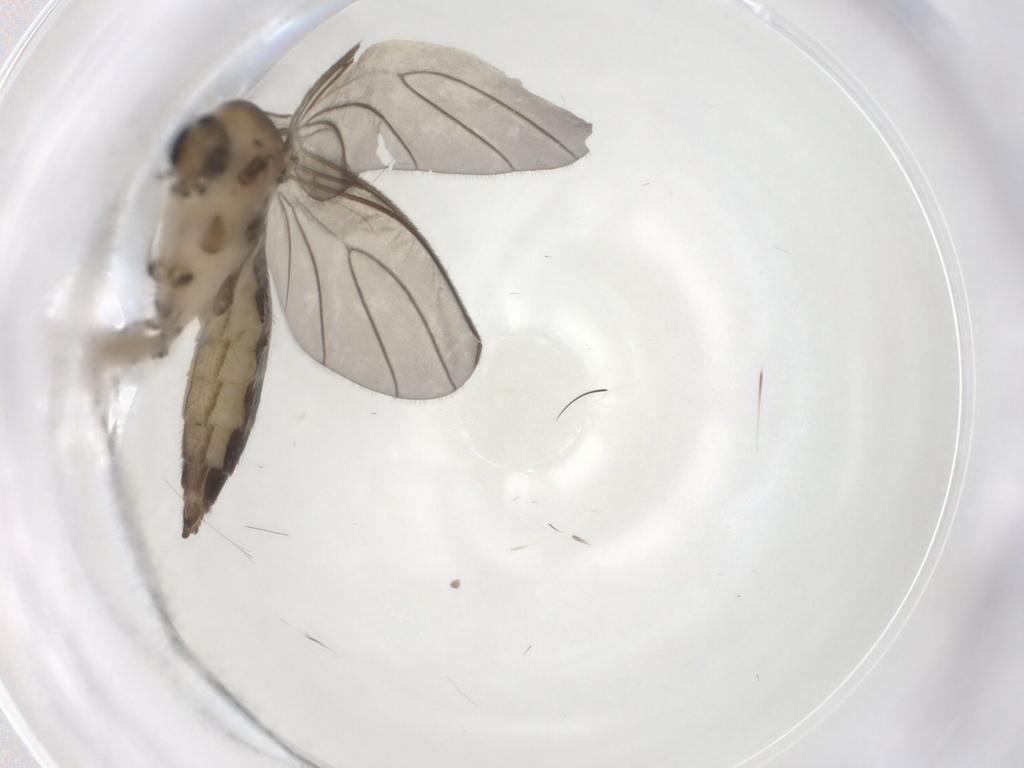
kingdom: Animalia
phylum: Arthropoda
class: Insecta
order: Diptera
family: Sciaridae
